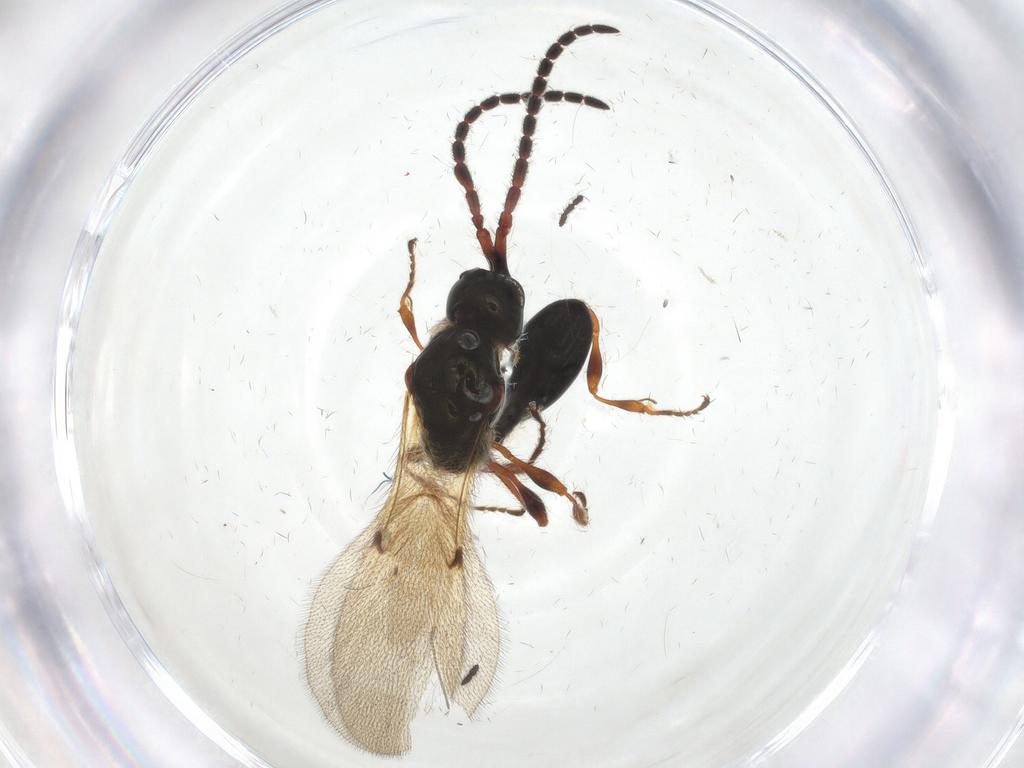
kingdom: Animalia
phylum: Arthropoda
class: Insecta
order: Hymenoptera
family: Diapriidae
